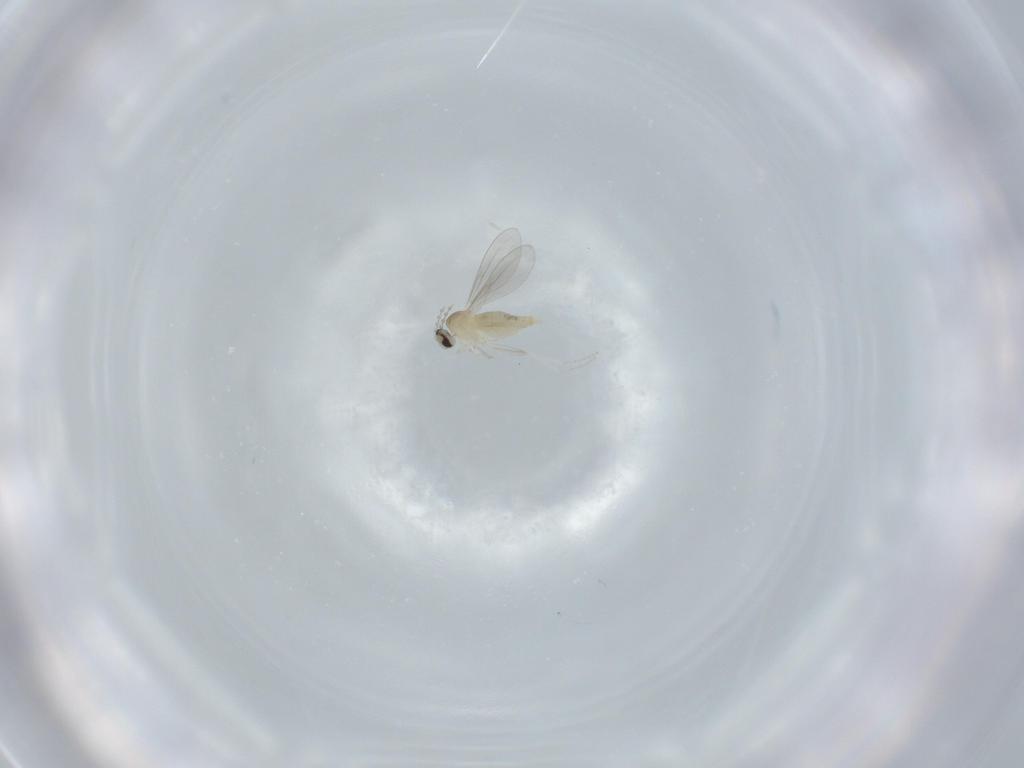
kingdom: Animalia
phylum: Arthropoda
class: Insecta
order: Diptera
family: Cecidomyiidae
